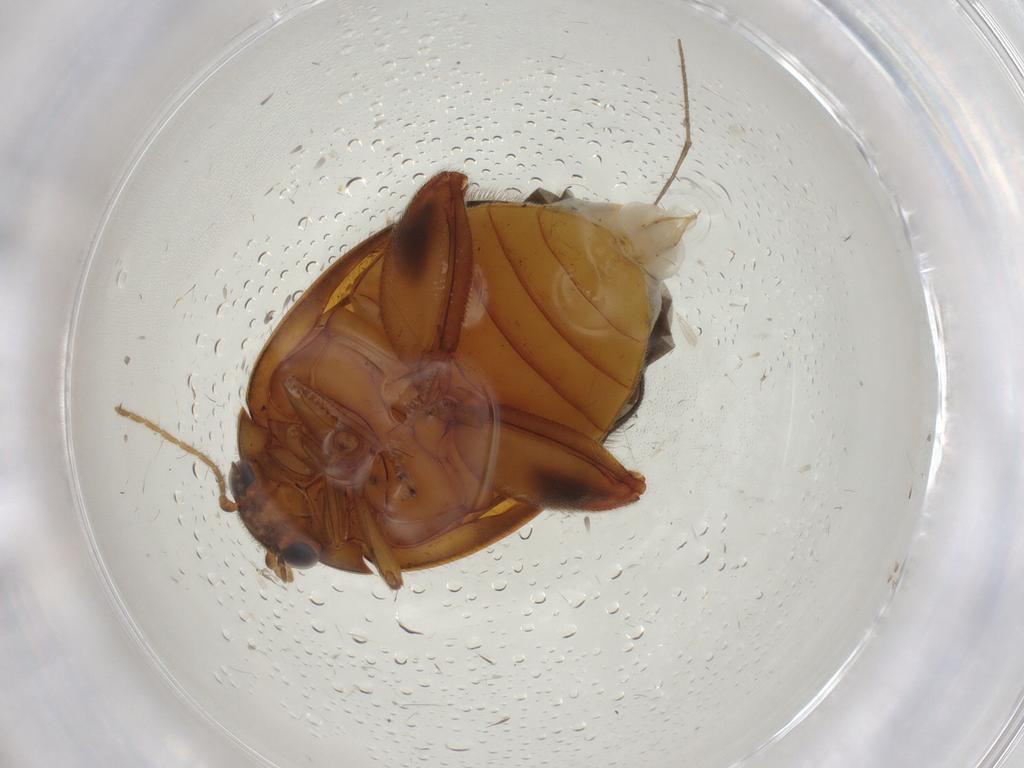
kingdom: Animalia
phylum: Arthropoda
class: Insecta
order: Coleoptera
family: Scirtidae
